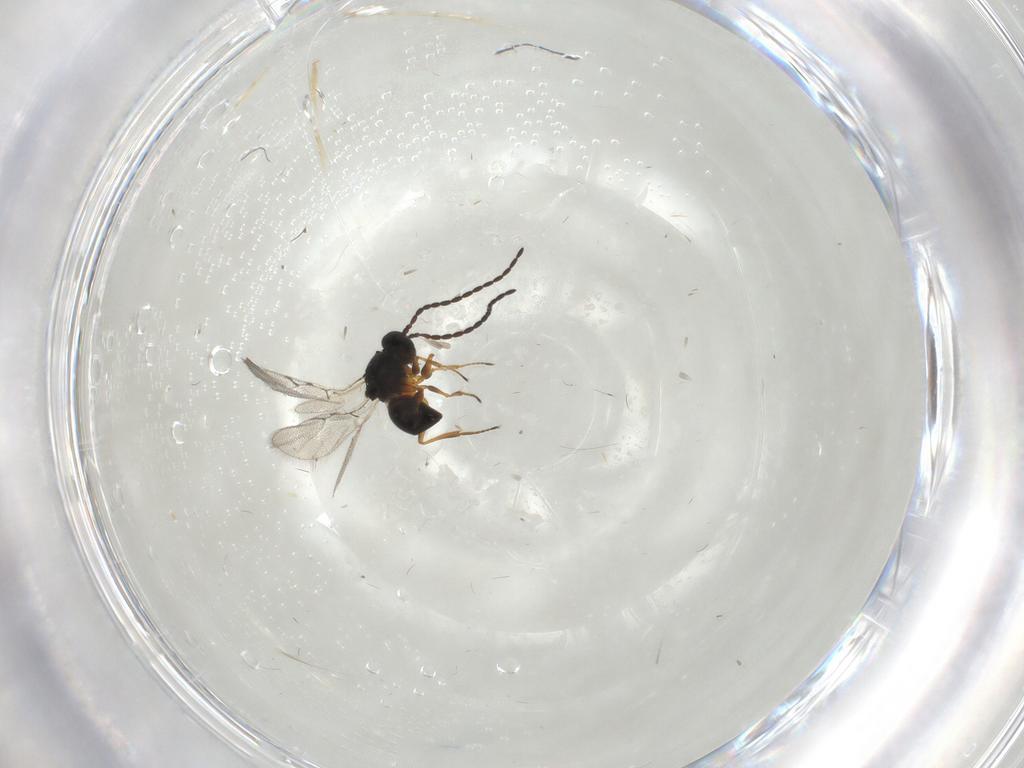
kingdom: Animalia
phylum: Arthropoda
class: Insecta
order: Hymenoptera
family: Figitidae
